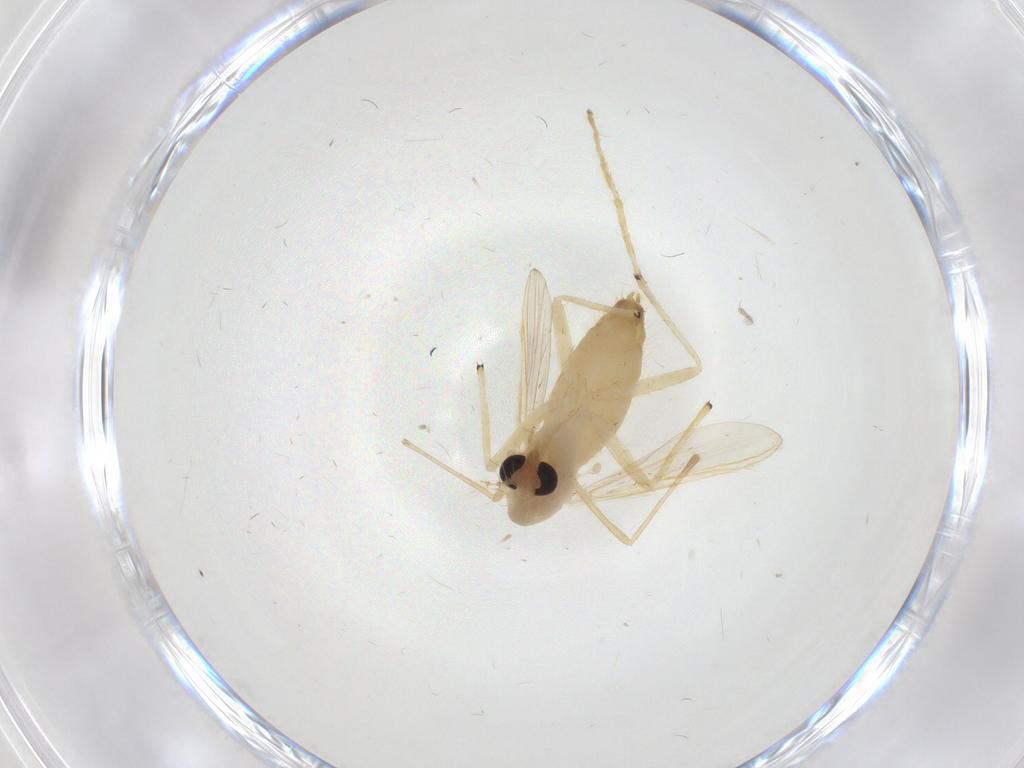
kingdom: Animalia
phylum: Arthropoda
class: Insecta
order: Diptera
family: Chironomidae
